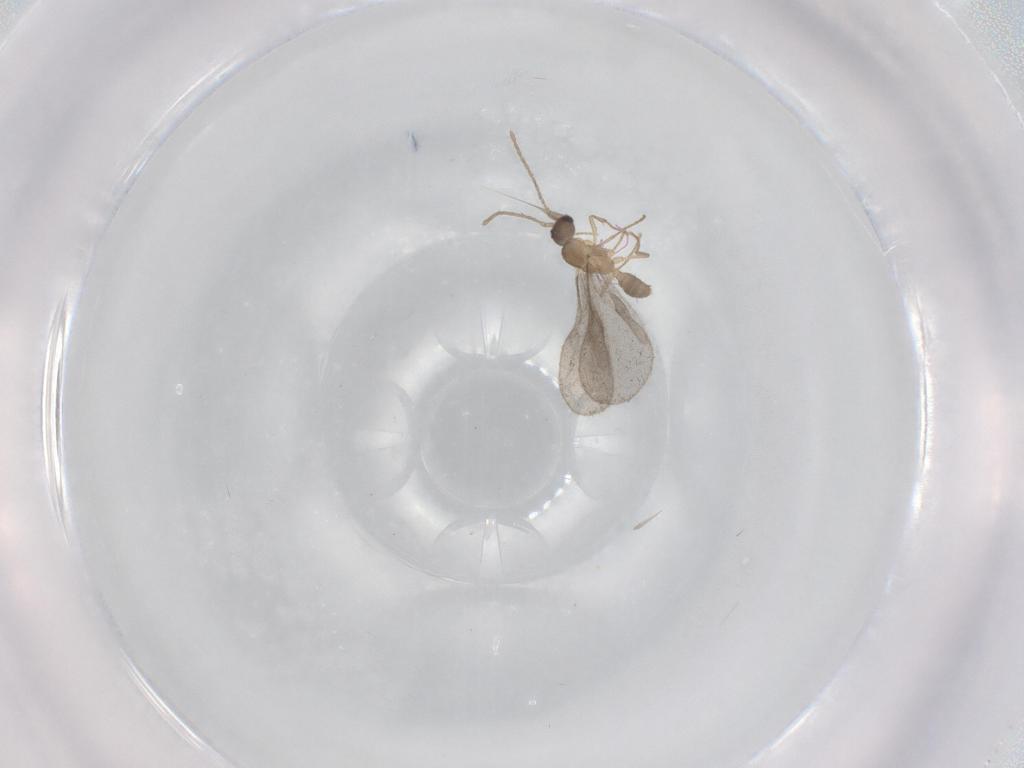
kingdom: Animalia
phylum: Arthropoda
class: Insecta
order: Hymenoptera
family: Formicidae
